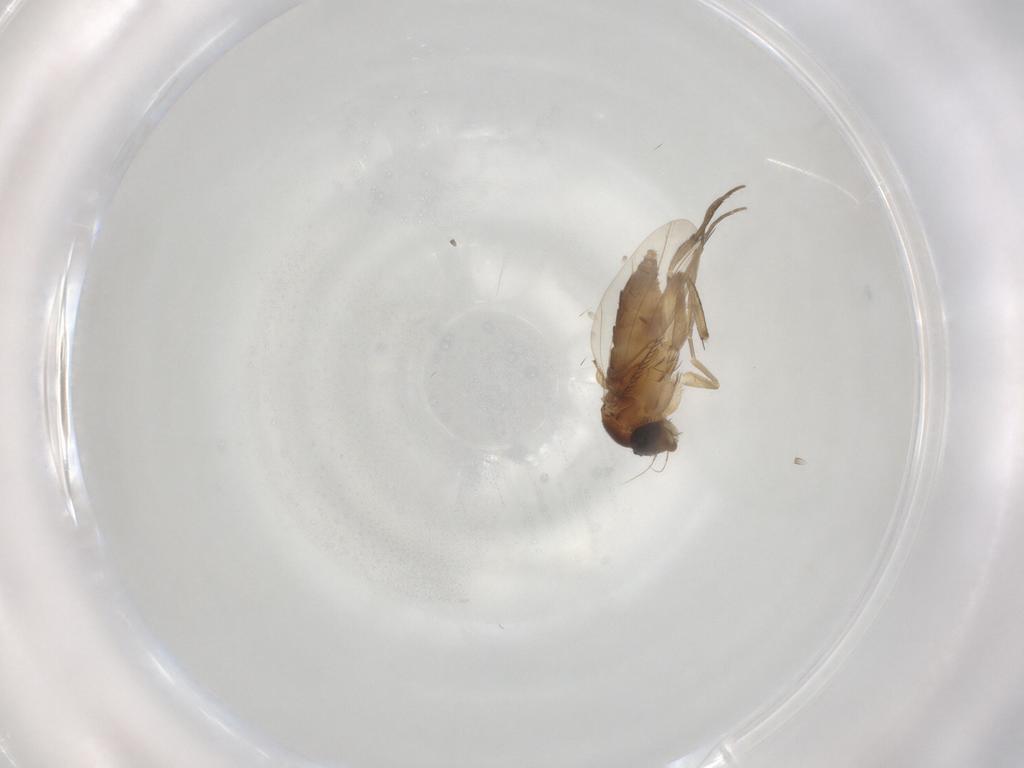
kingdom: Animalia
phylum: Arthropoda
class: Insecta
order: Diptera
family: Phoridae
